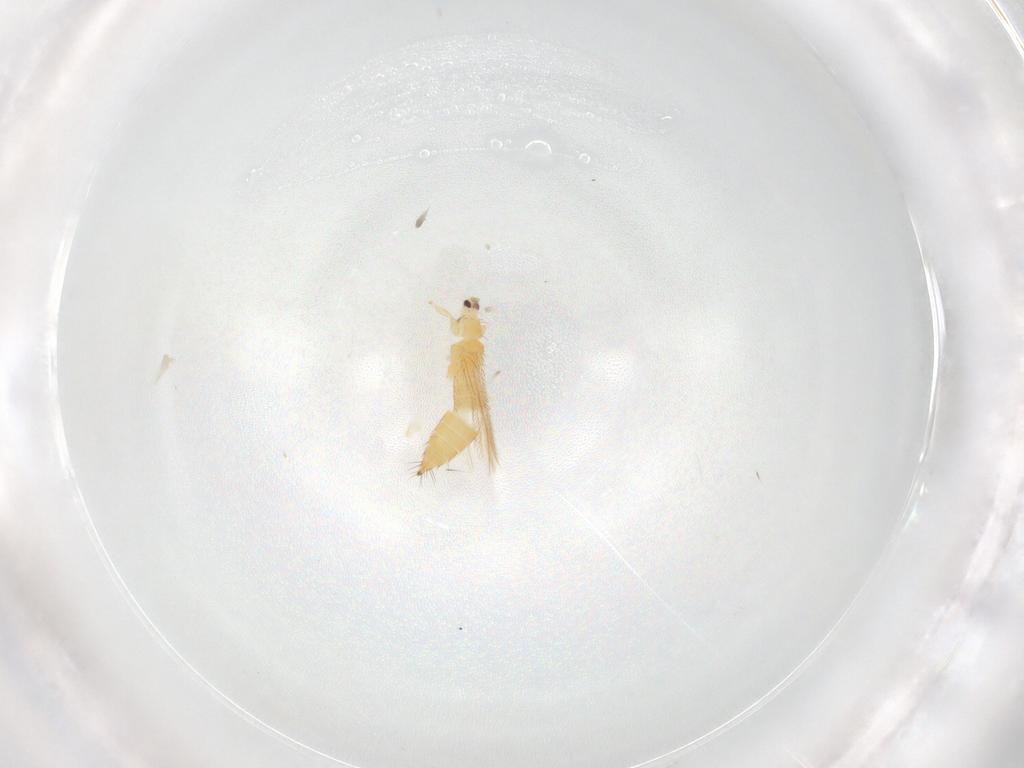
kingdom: Animalia
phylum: Arthropoda
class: Insecta
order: Thysanoptera
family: Thripidae
